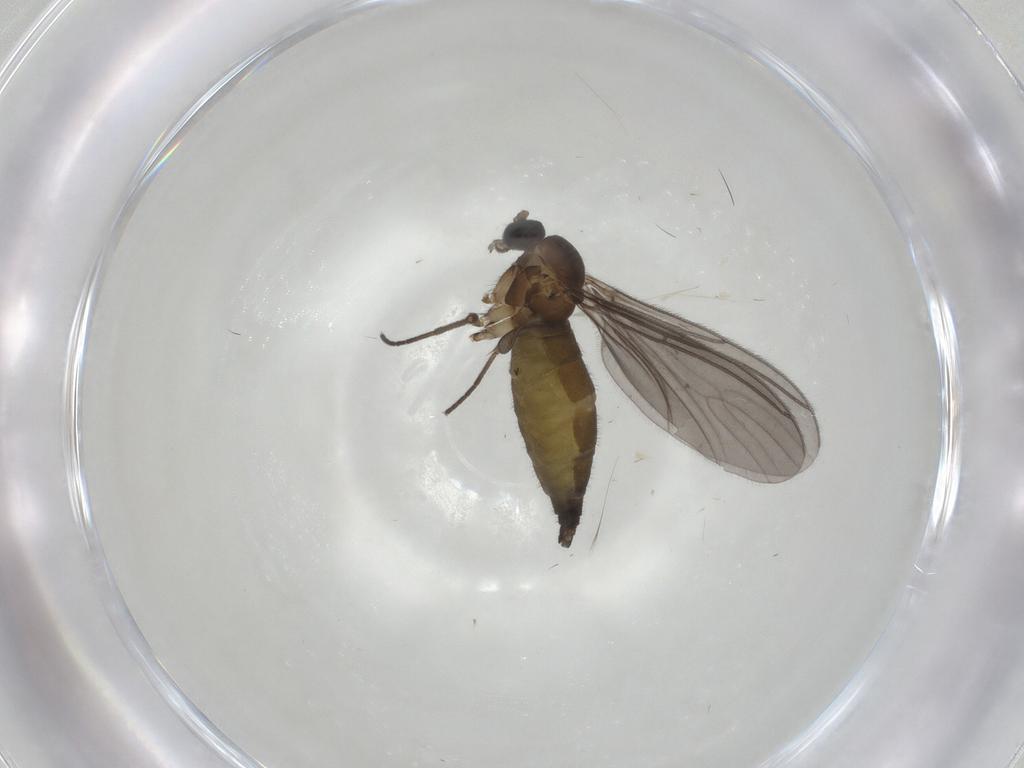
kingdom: Animalia
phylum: Arthropoda
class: Insecta
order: Diptera
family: Sciaridae
